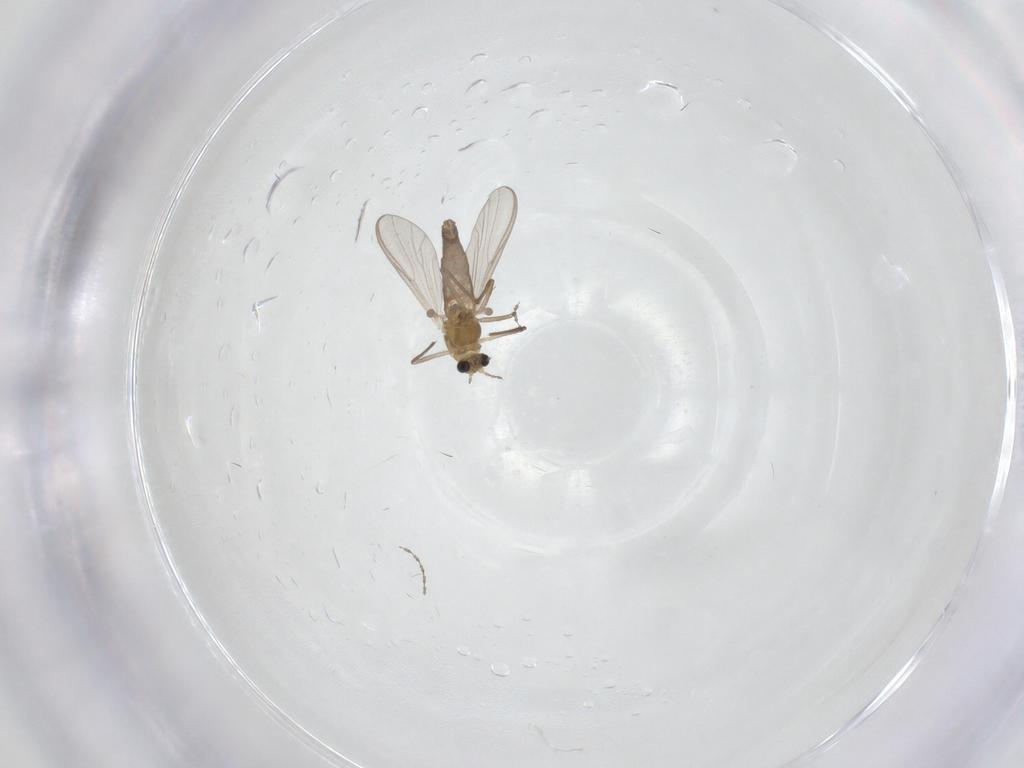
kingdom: Animalia
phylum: Arthropoda
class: Insecta
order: Diptera
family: Chironomidae
